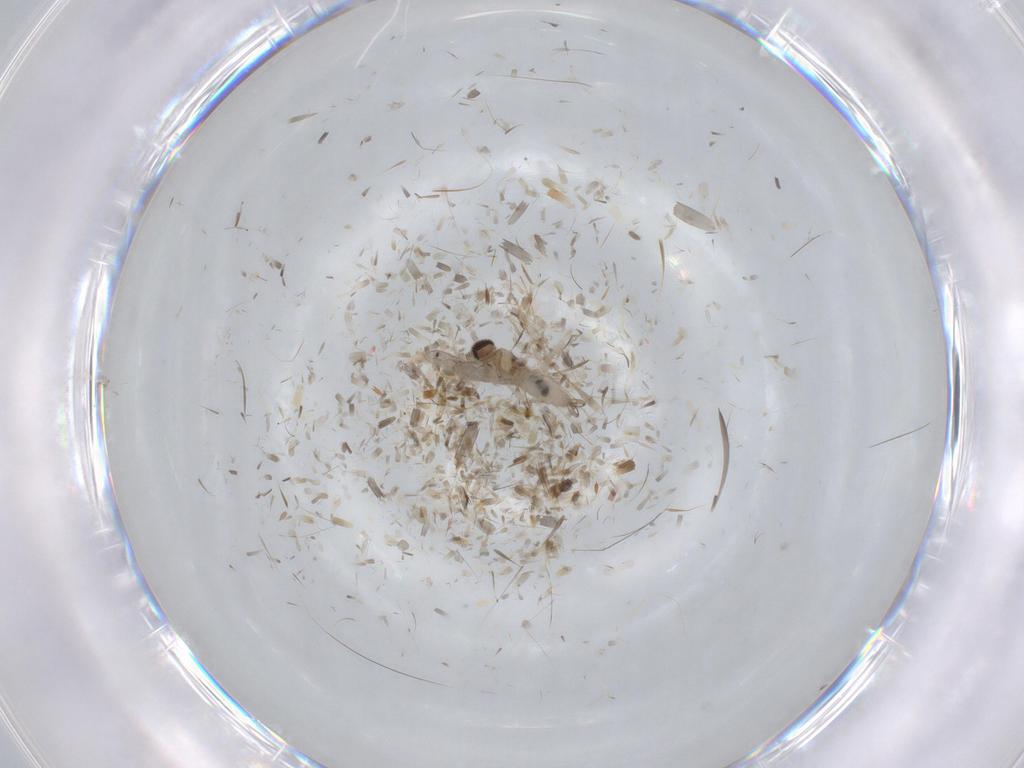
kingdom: Animalia
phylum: Arthropoda
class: Insecta
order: Diptera
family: Cecidomyiidae
